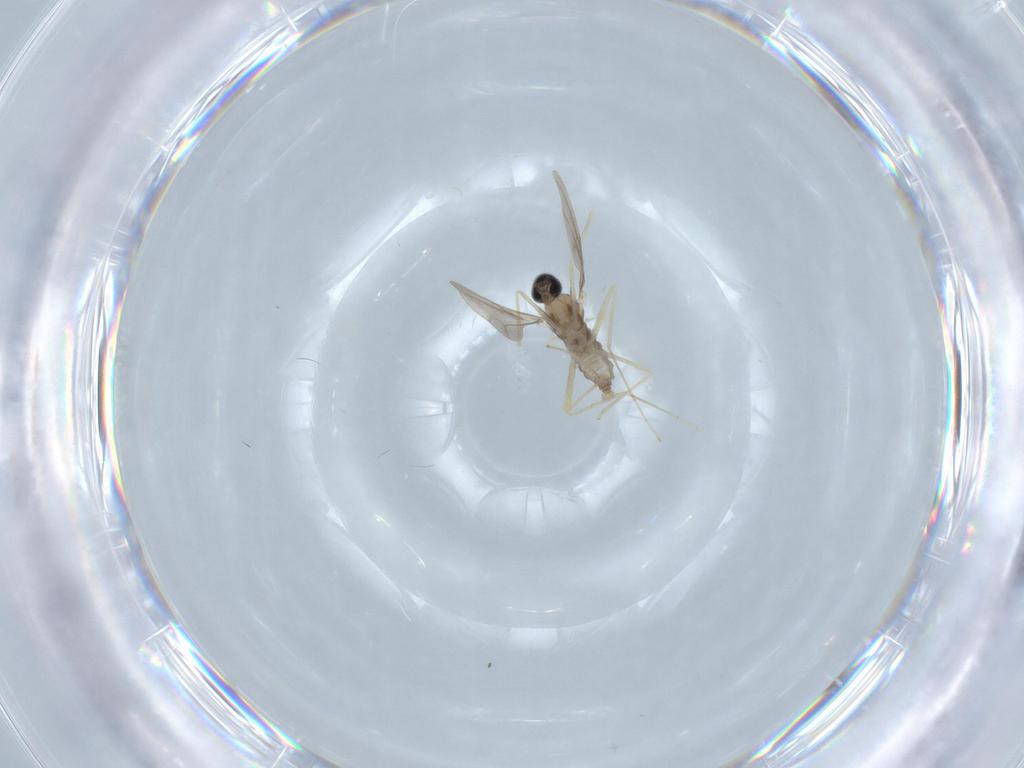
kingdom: Animalia
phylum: Arthropoda
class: Insecta
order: Diptera
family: Cecidomyiidae
